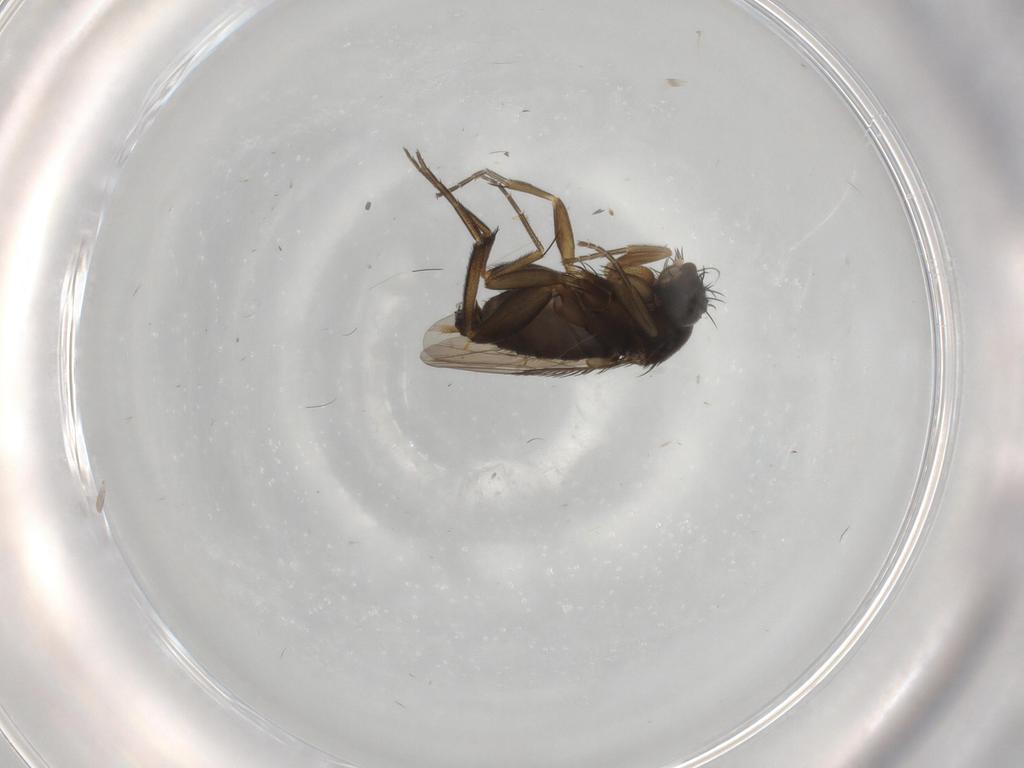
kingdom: Animalia
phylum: Arthropoda
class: Insecta
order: Diptera
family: Phoridae
